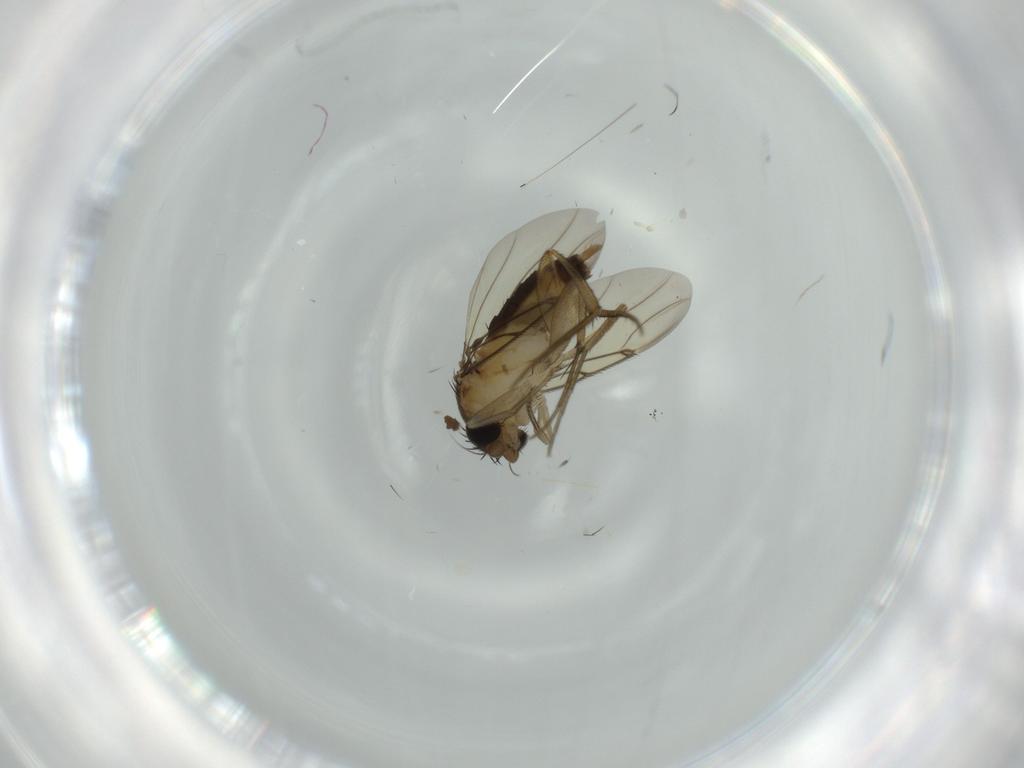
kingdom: Animalia
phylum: Arthropoda
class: Insecta
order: Diptera
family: Phoridae
